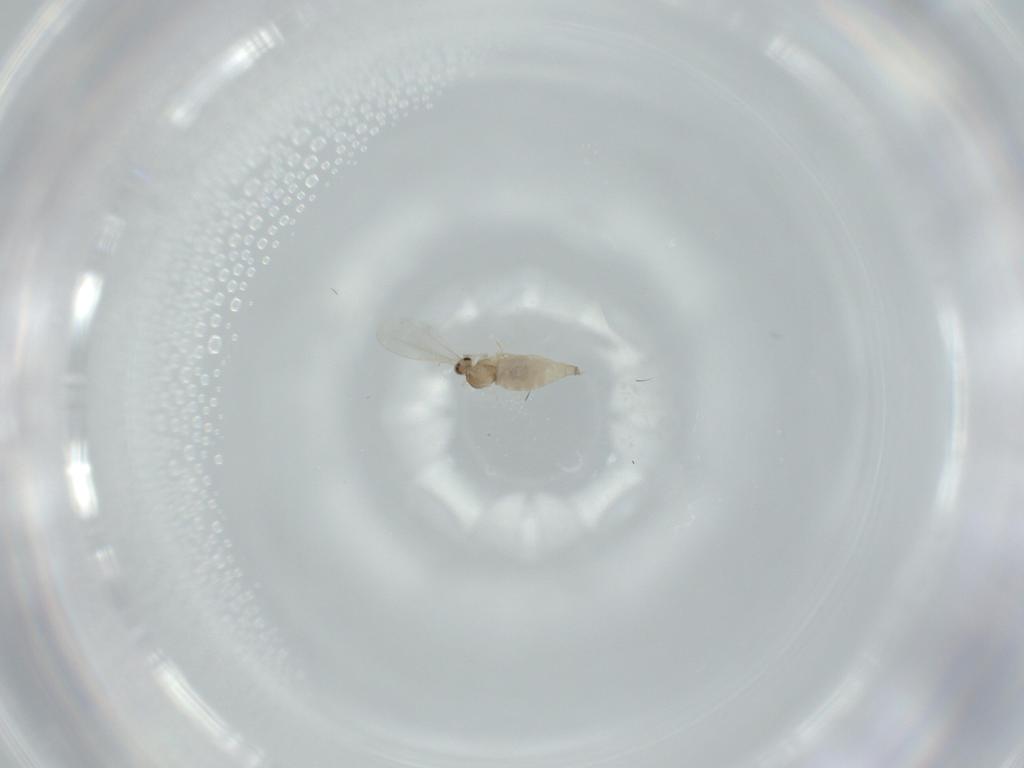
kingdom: Animalia
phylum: Arthropoda
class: Insecta
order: Diptera
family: Cecidomyiidae
